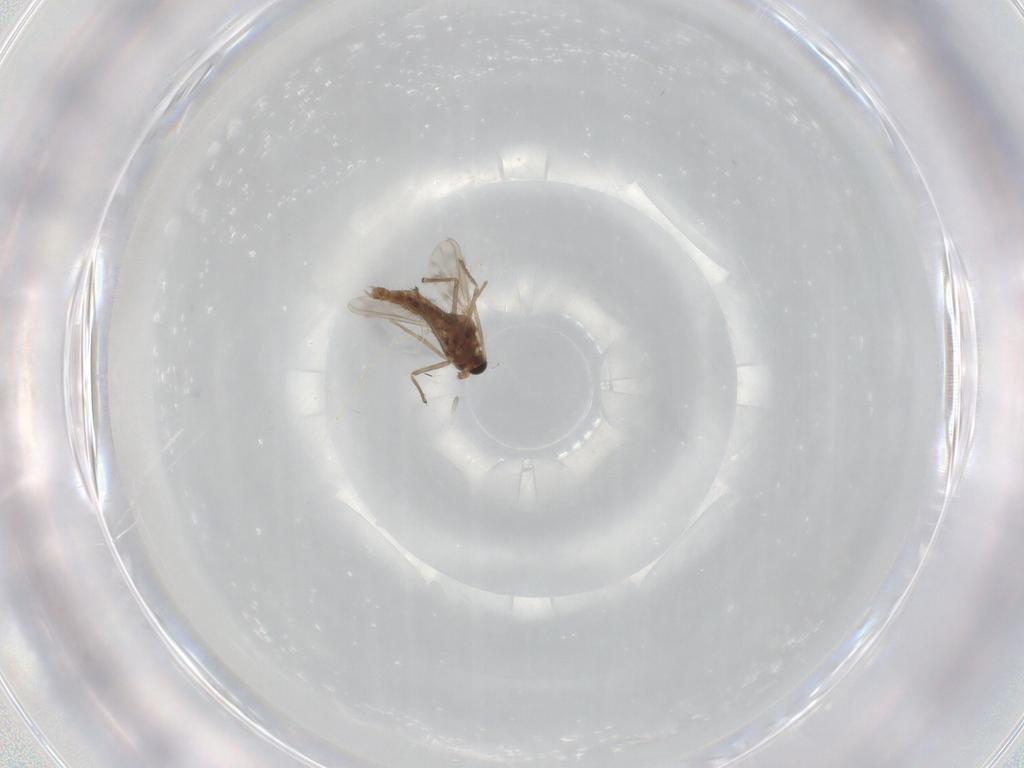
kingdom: Animalia
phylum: Arthropoda
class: Insecta
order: Diptera
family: Chironomidae
